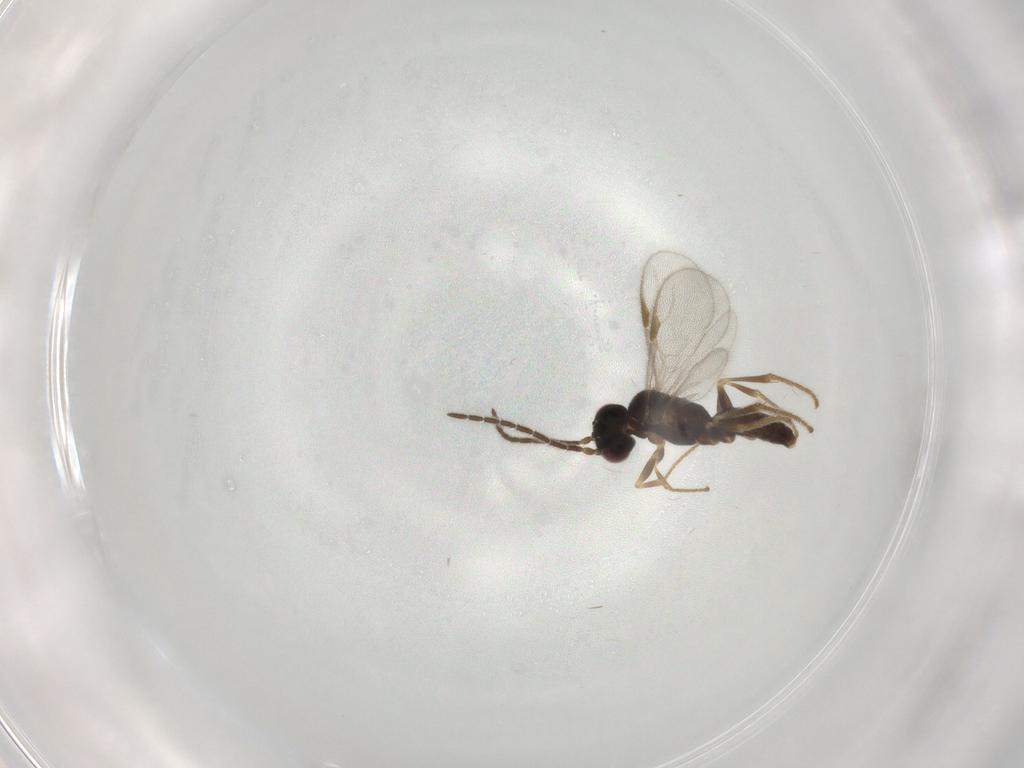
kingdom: Animalia
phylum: Arthropoda
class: Insecta
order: Hymenoptera
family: Dryinidae
